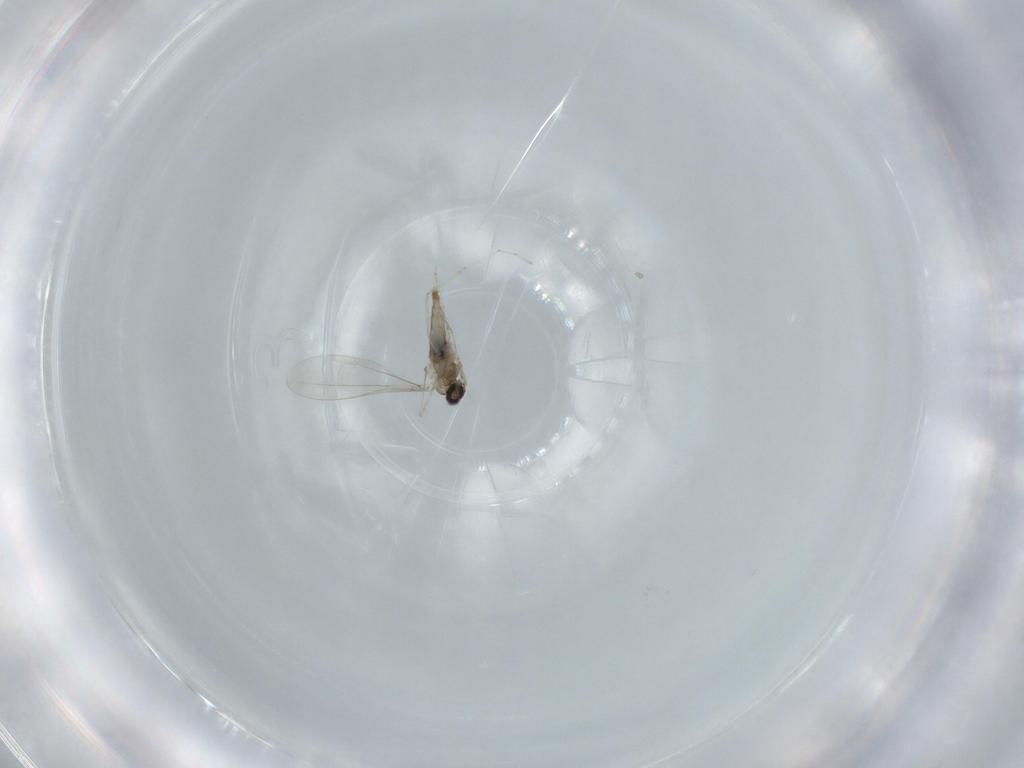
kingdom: Animalia
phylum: Arthropoda
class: Insecta
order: Diptera
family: Cecidomyiidae
